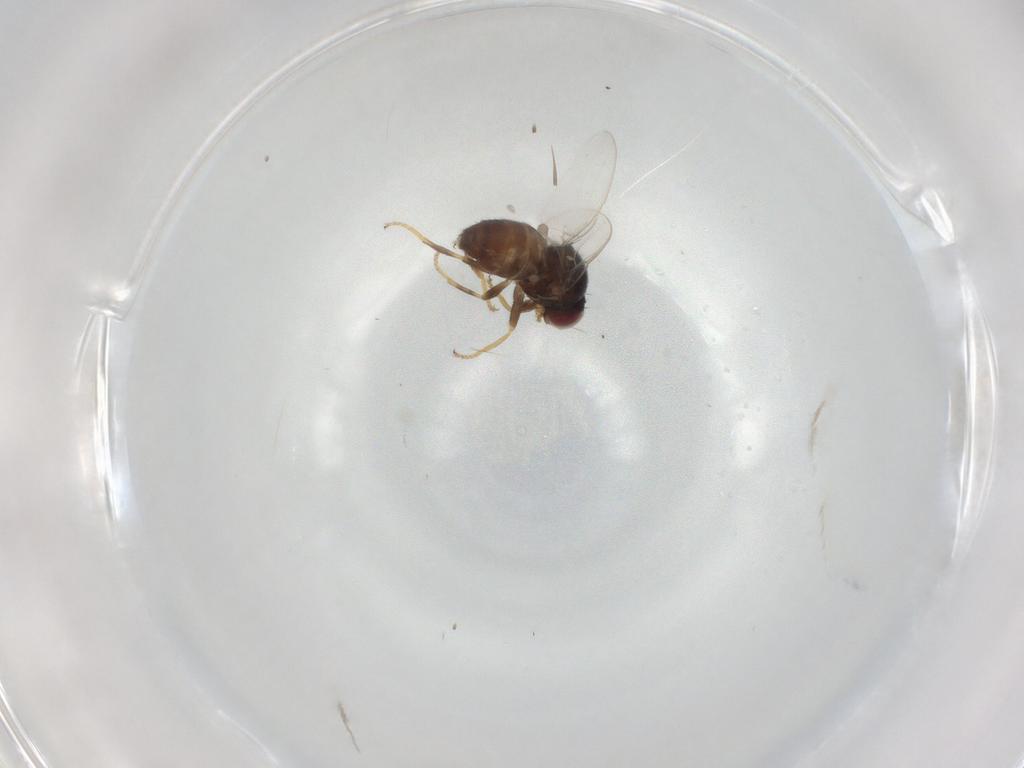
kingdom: Animalia
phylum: Arthropoda
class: Insecta
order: Diptera
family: Chloropidae
